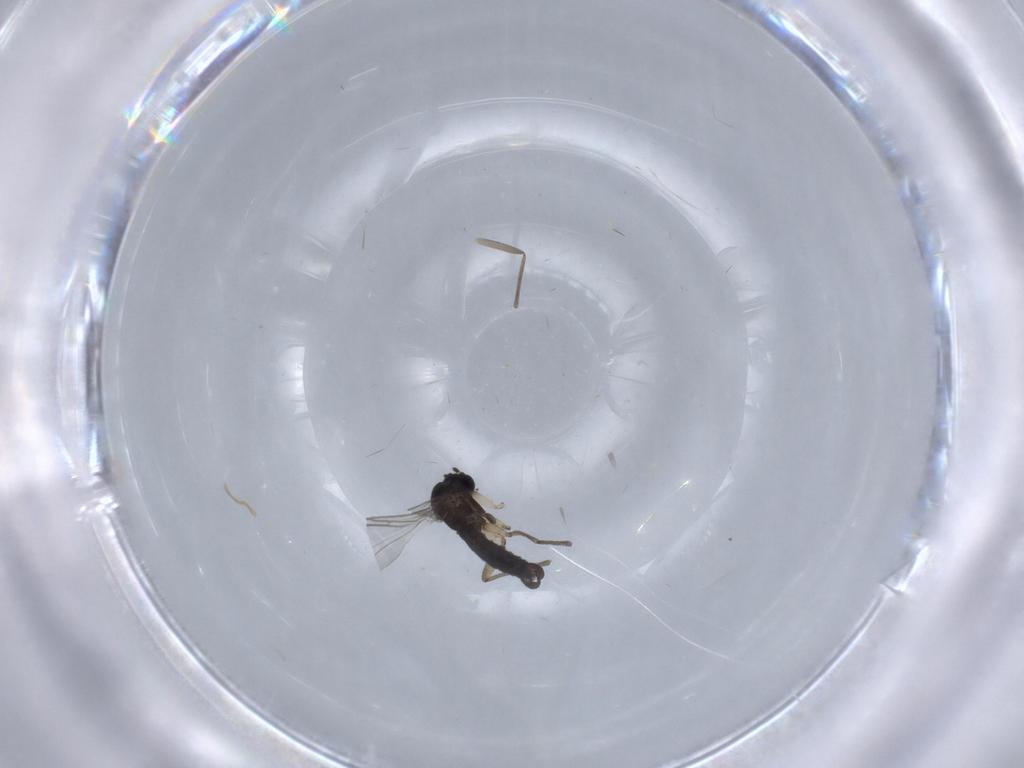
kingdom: Animalia
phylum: Arthropoda
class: Insecta
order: Diptera
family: Sciaridae
